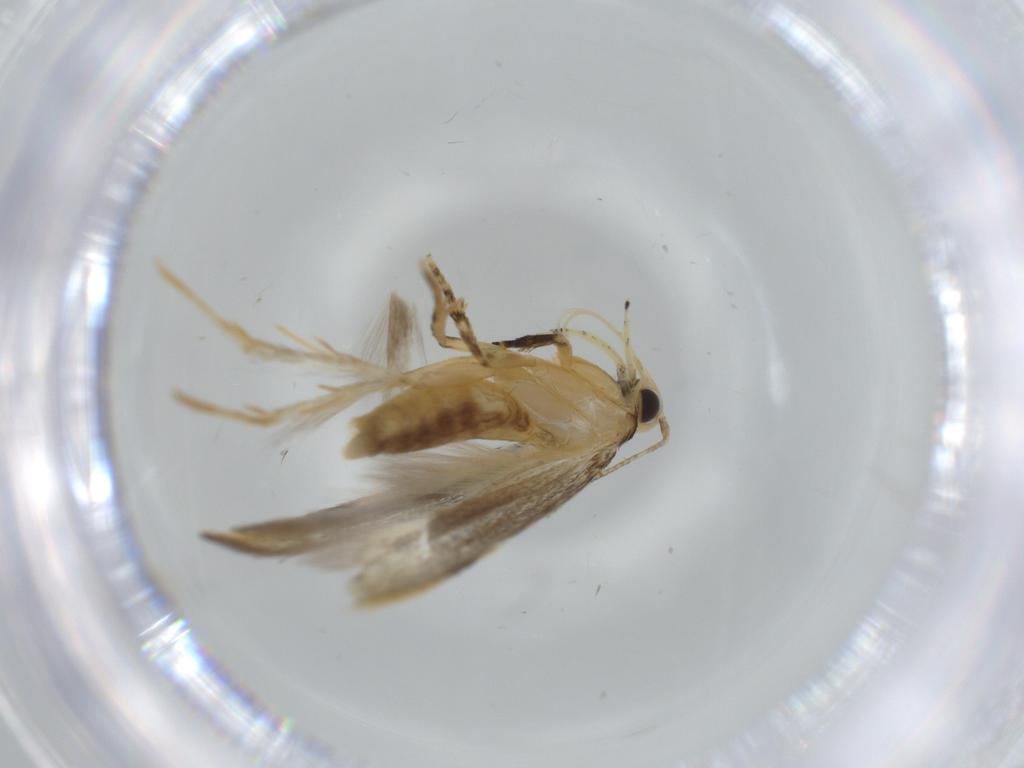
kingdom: Animalia
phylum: Arthropoda
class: Insecta
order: Lepidoptera
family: Autostichidae
